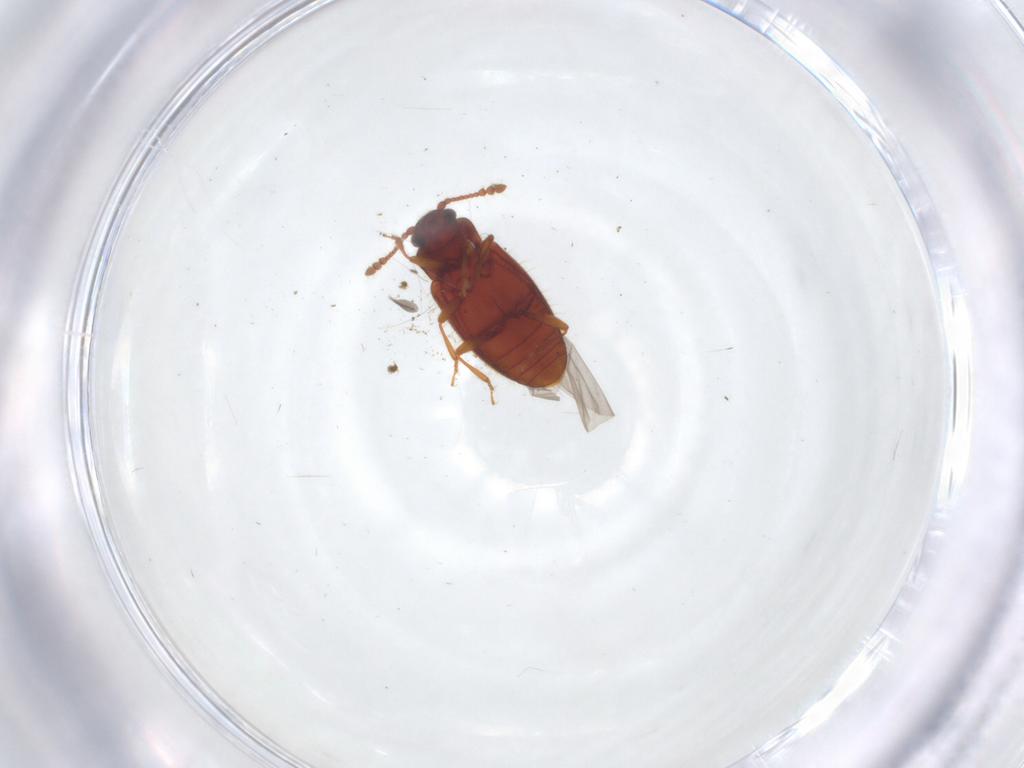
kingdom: Animalia
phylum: Arthropoda
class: Insecta
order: Coleoptera
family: Cryptophagidae
